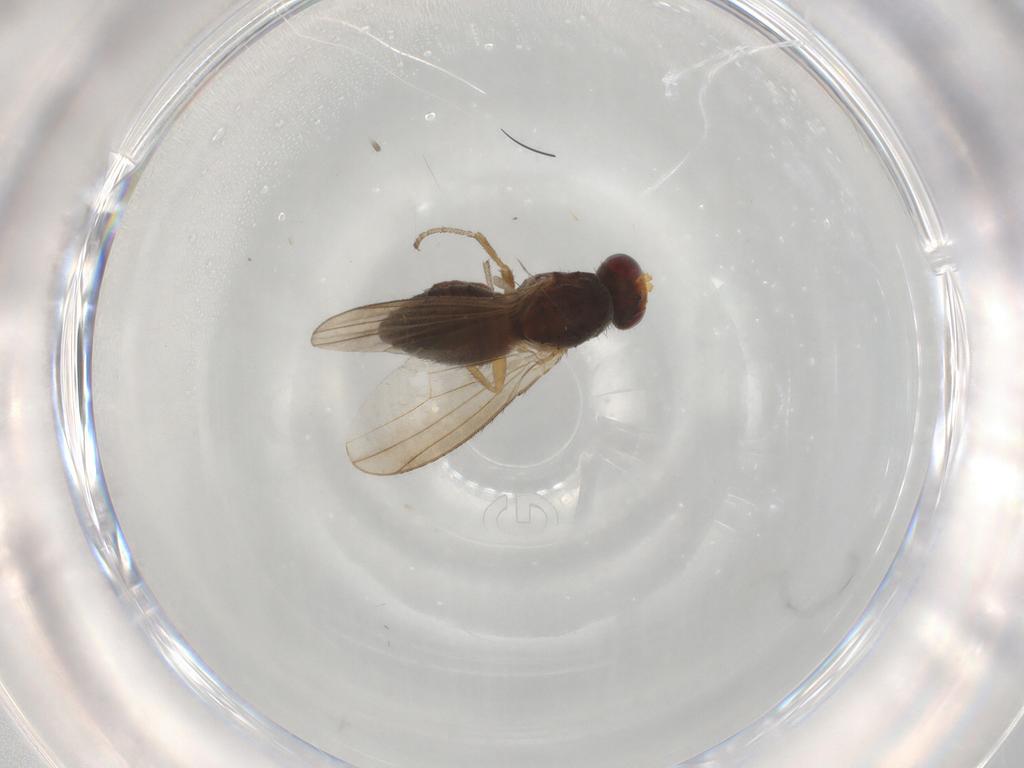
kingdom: Animalia
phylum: Arthropoda
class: Insecta
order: Diptera
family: Heleomyzidae
